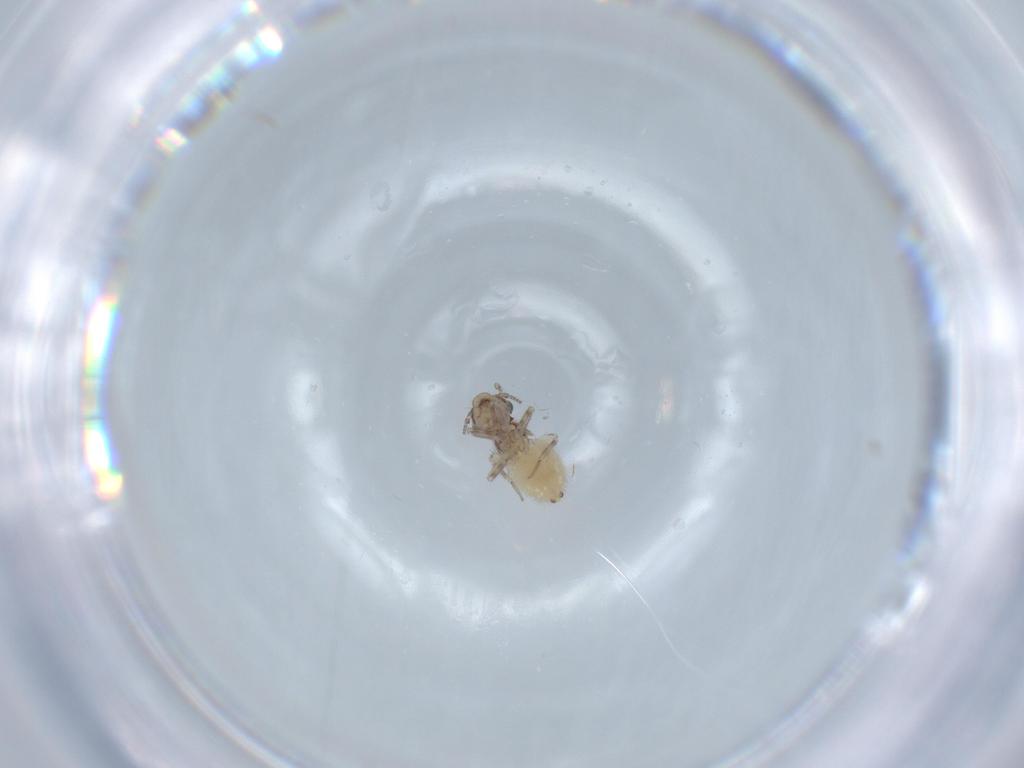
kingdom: Animalia
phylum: Arthropoda
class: Insecta
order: Psocodea
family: Lepidopsocidae
